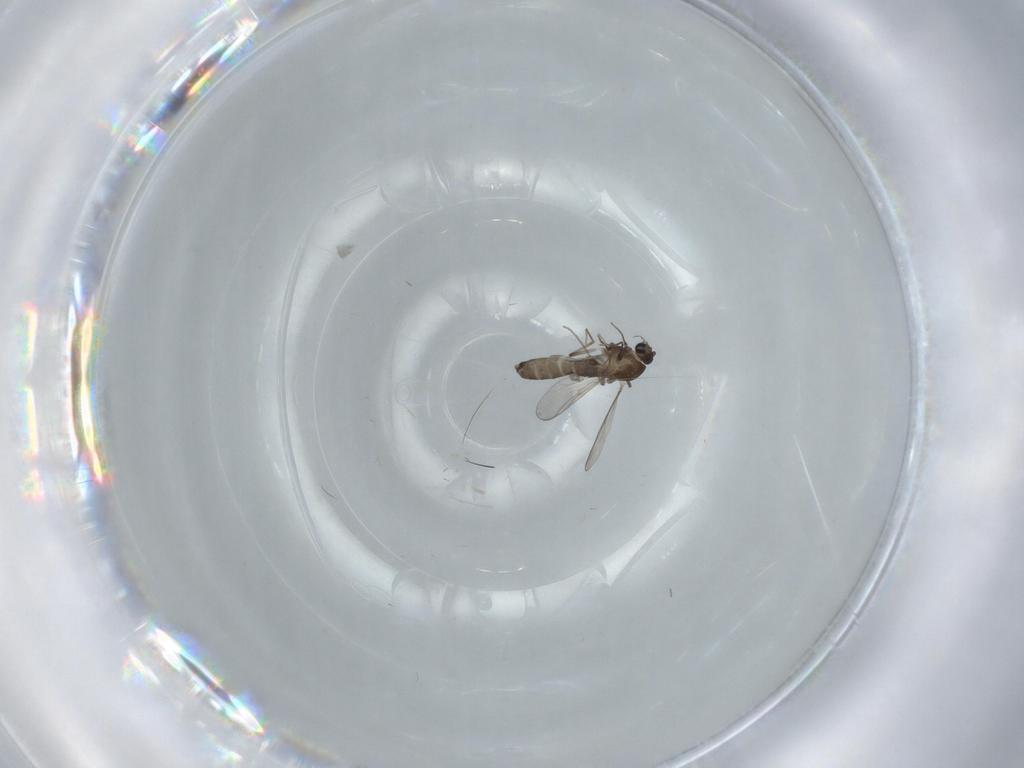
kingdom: Animalia
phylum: Arthropoda
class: Insecta
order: Diptera
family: Chironomidae
